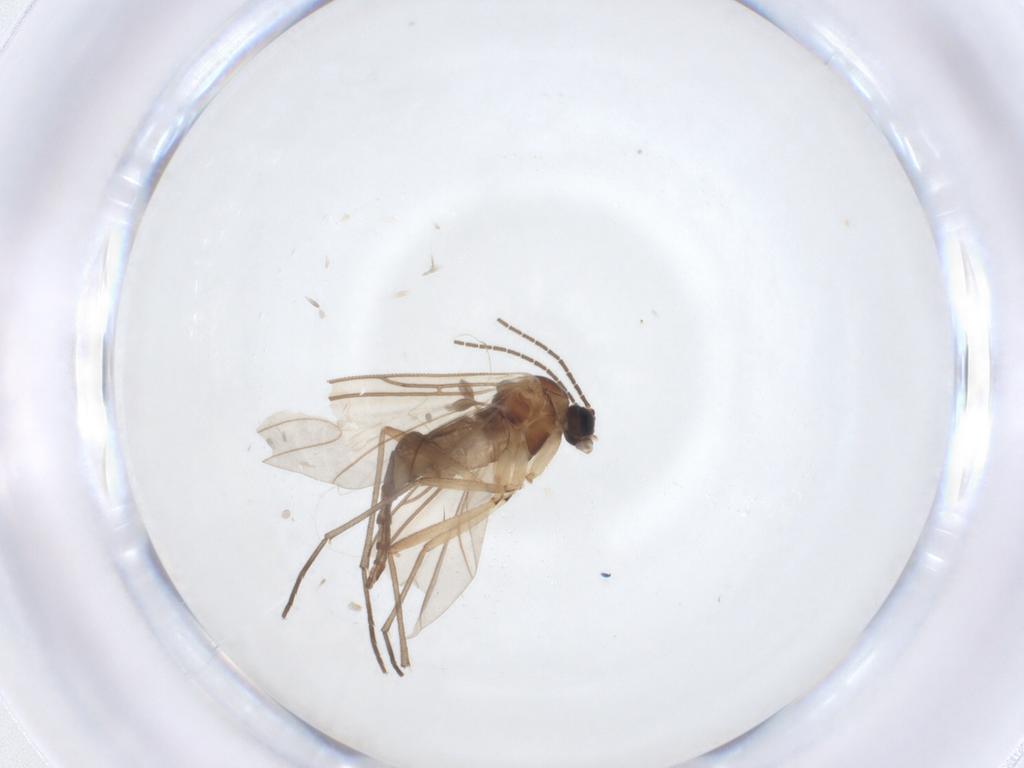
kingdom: Animalia
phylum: Arthropoda
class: Insecta
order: Diptera
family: Sciaridae
